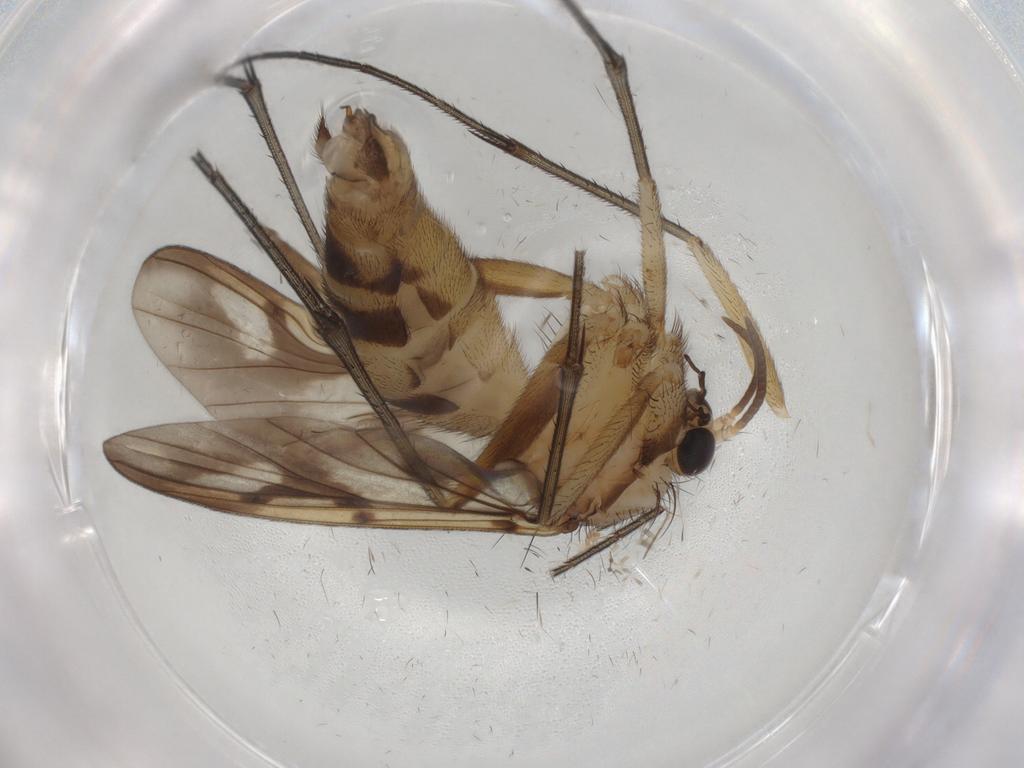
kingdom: Animalia
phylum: Arthropoda
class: Insecta
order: Diptera
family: Mycetophilidae
